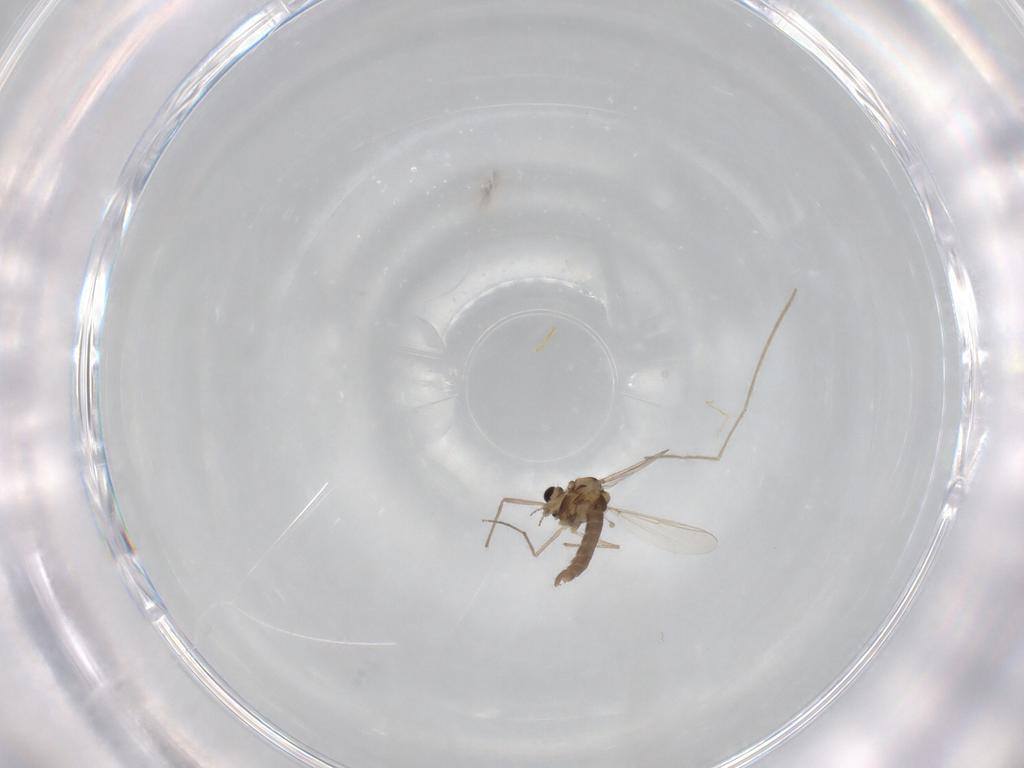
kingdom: Animalia
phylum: Arthropoda
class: Insecta
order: Diptera
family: Chironomidae
